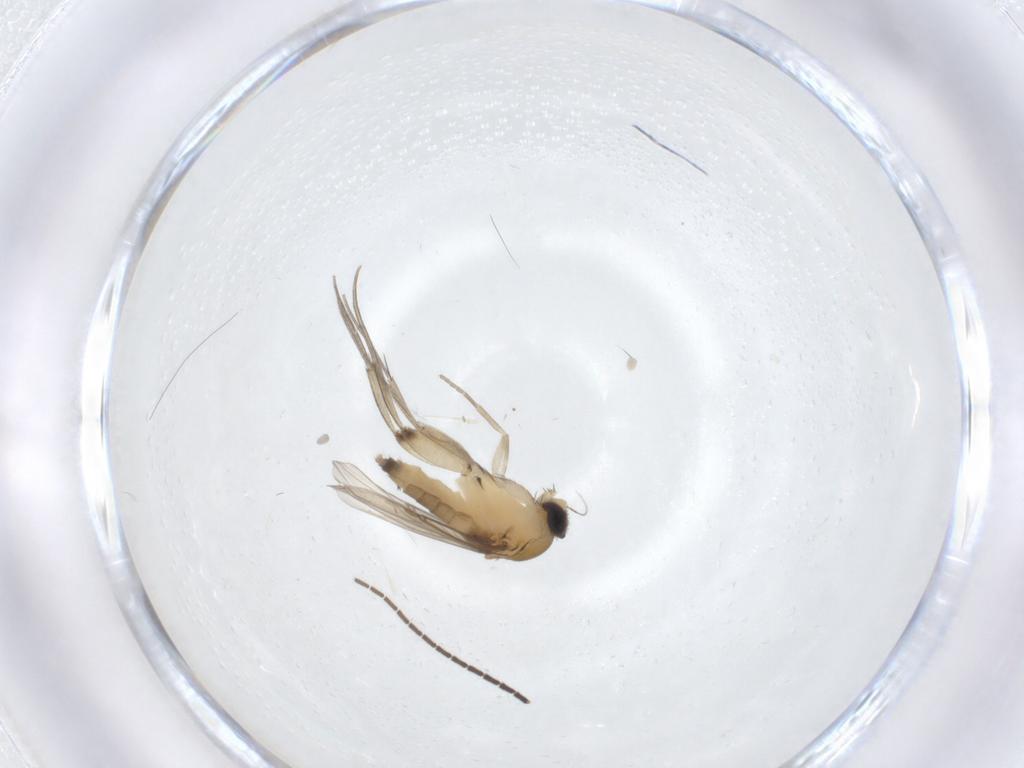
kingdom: Animalia
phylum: Arthropoda
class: Insecta
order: Diptera
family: Phoridae
